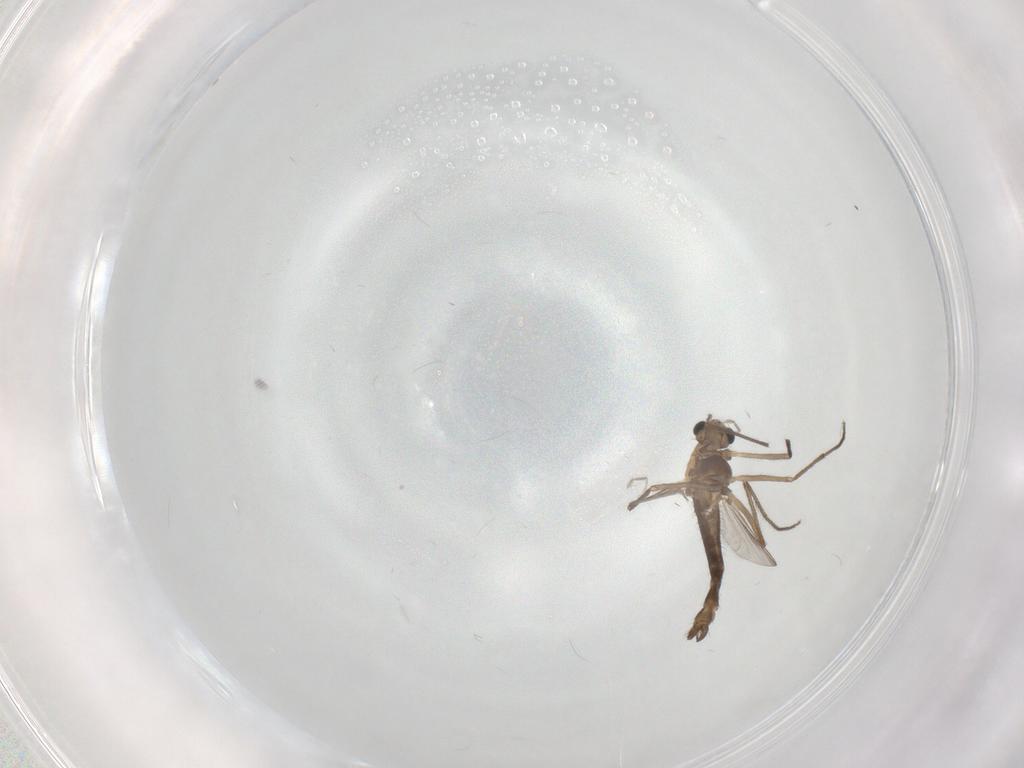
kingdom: Animalia
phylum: Arthropoda
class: Insecta
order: Diptera
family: Chironomidae
